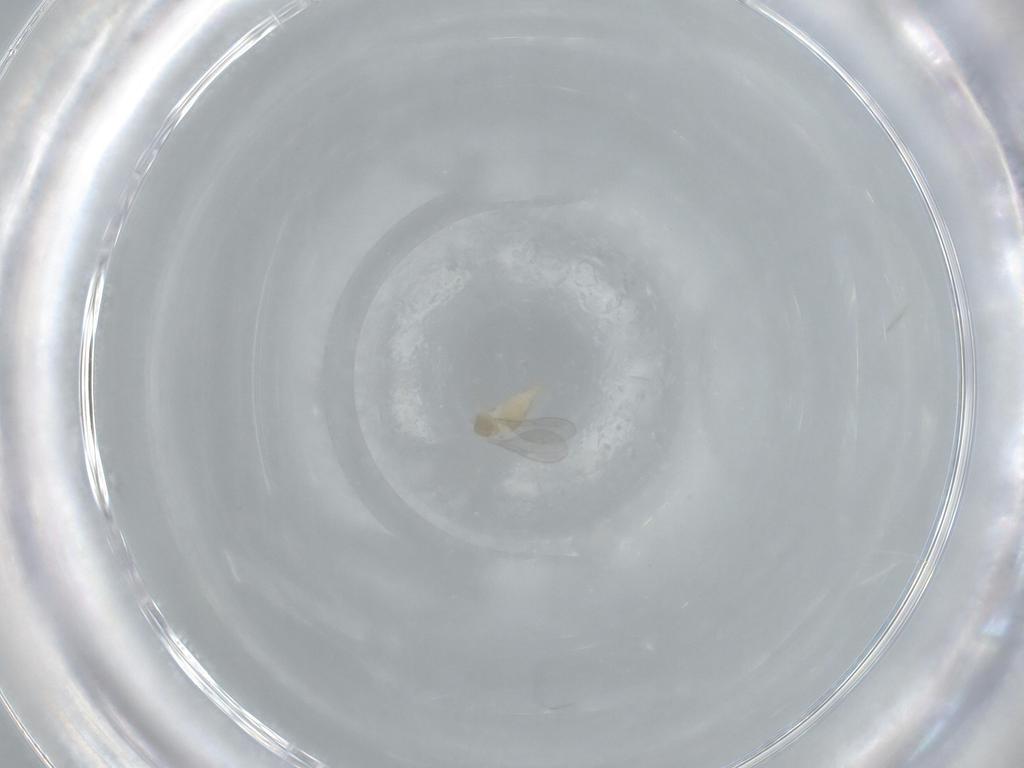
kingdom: Animalia
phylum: Arthropoda
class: Insecta
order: Diptera
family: Cecidomyiidae
